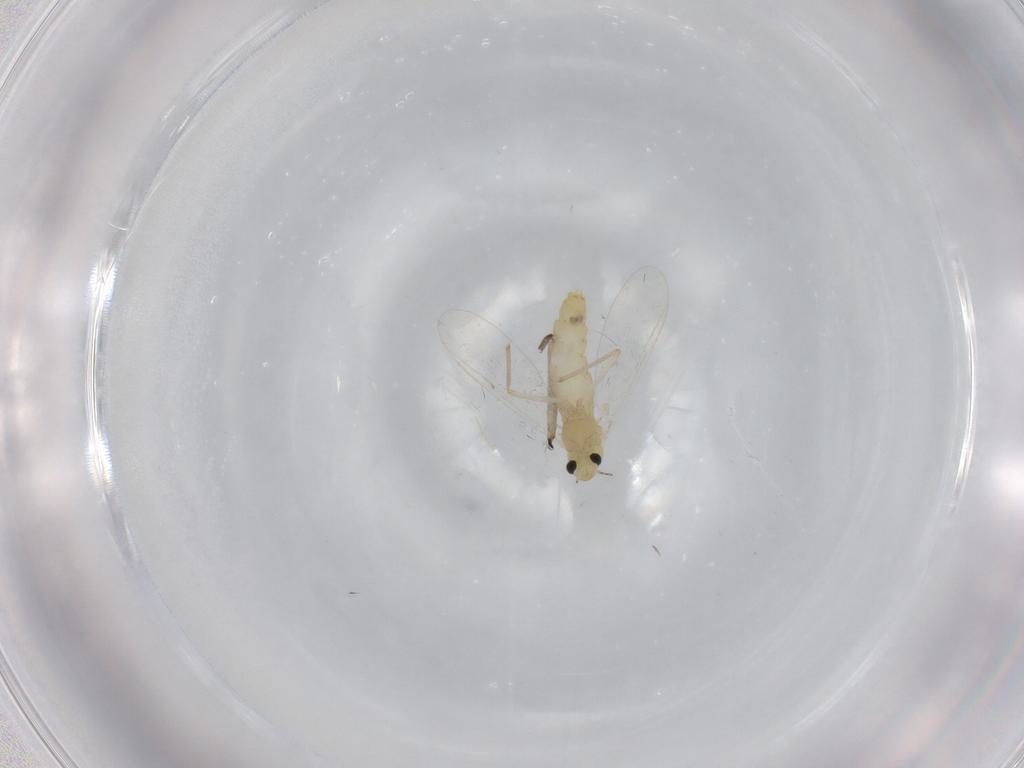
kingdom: Animalia
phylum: Arthropoda
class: Insecta
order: Diptera
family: Chironomidae
